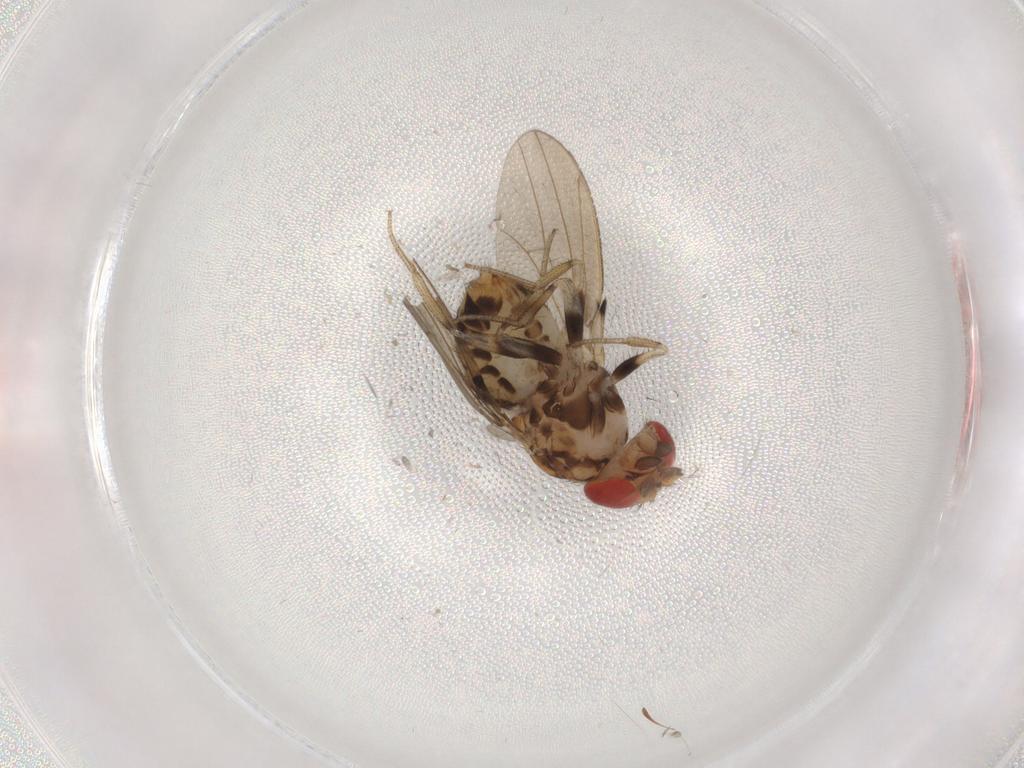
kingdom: Animalia
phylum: Arthropoda
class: Insecta
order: Diptera
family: Drosophilidae
